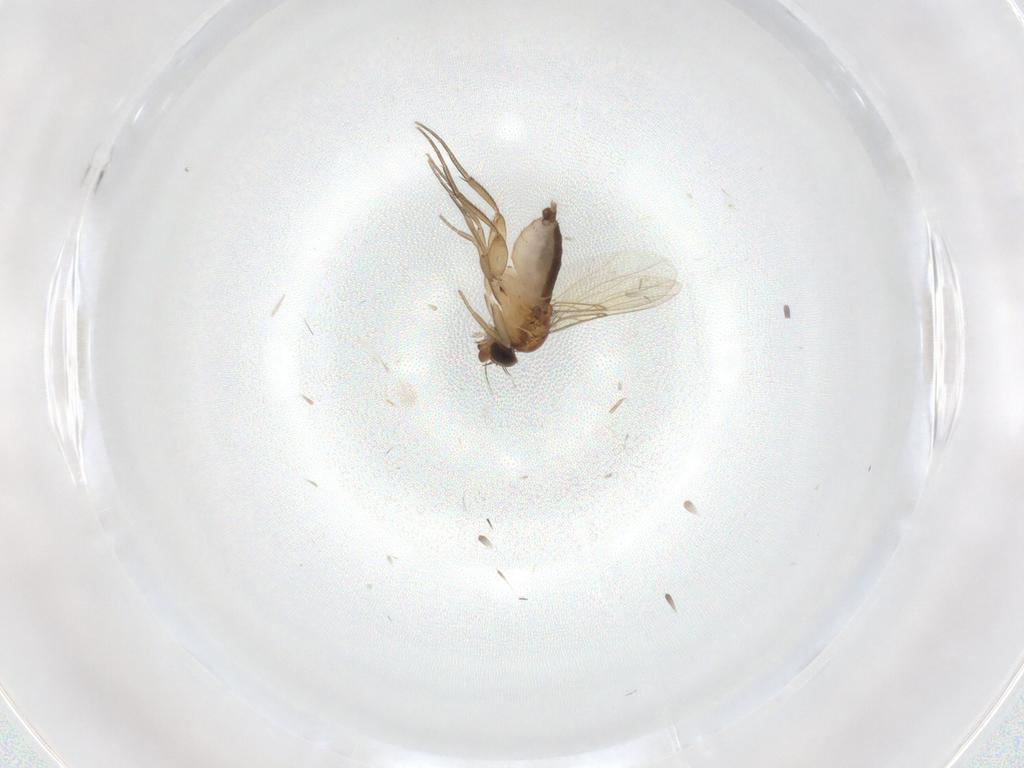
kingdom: Animalia
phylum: Arthropoda
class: Insecta
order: Diptera
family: Phoridae
